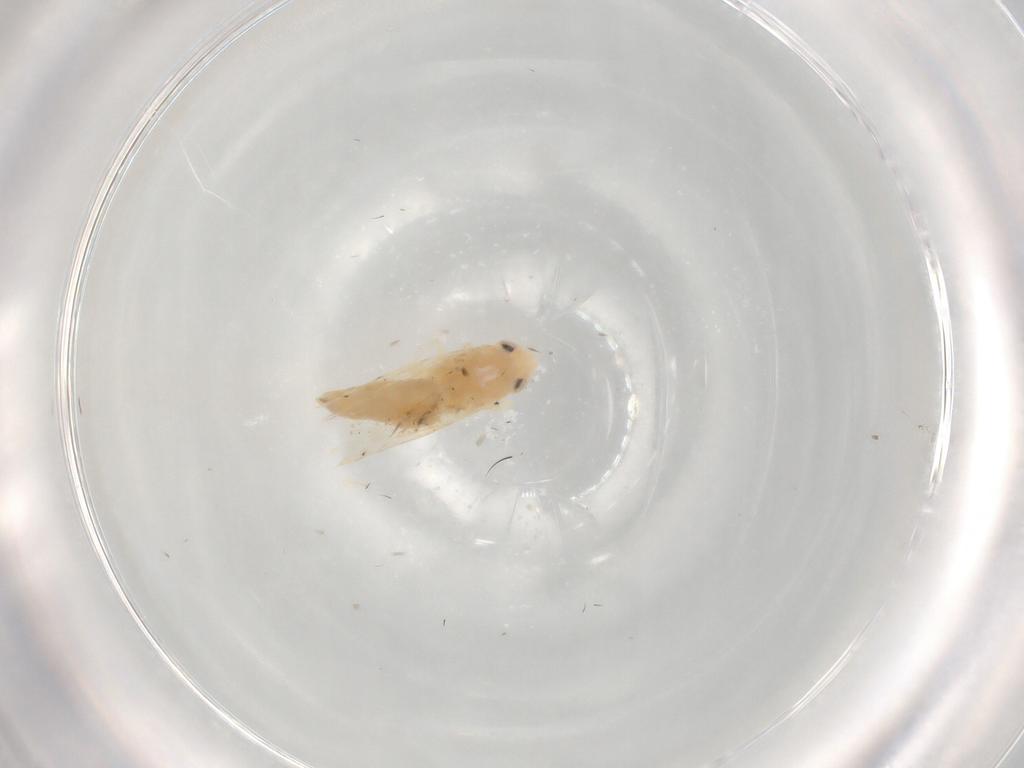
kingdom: Animalia
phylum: Arthropoda
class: Insecta
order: Hemiptera
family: Cicadellidae
